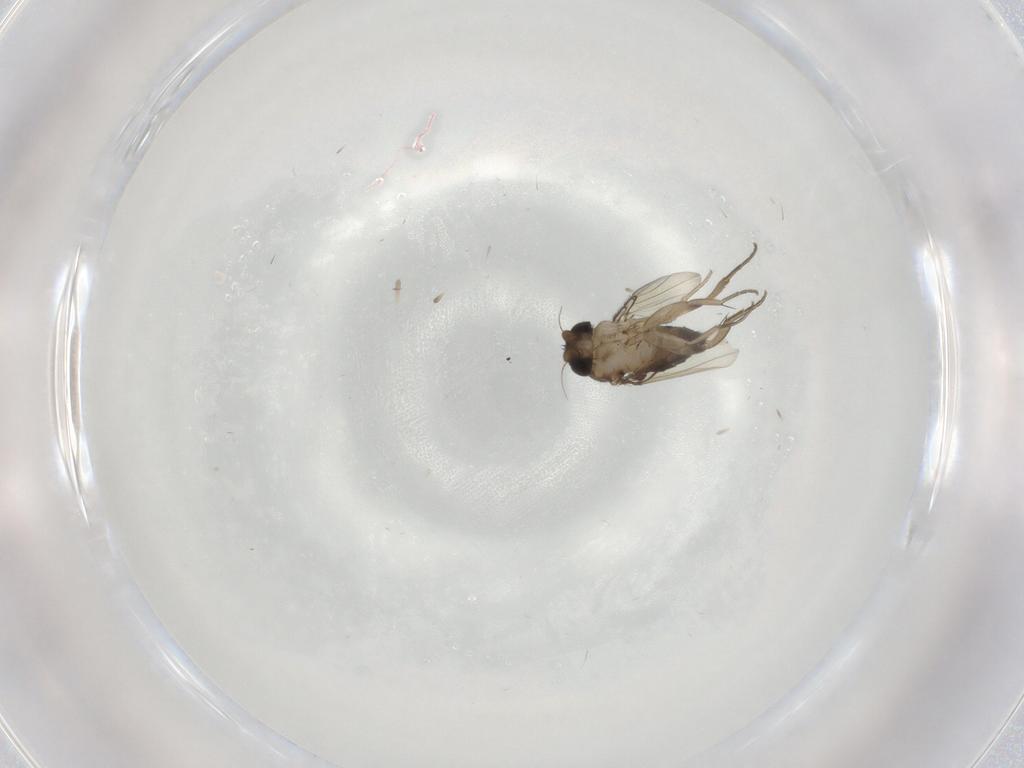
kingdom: Animalia
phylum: Arthropoda
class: Insecta
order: Diptera
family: Phoridae
